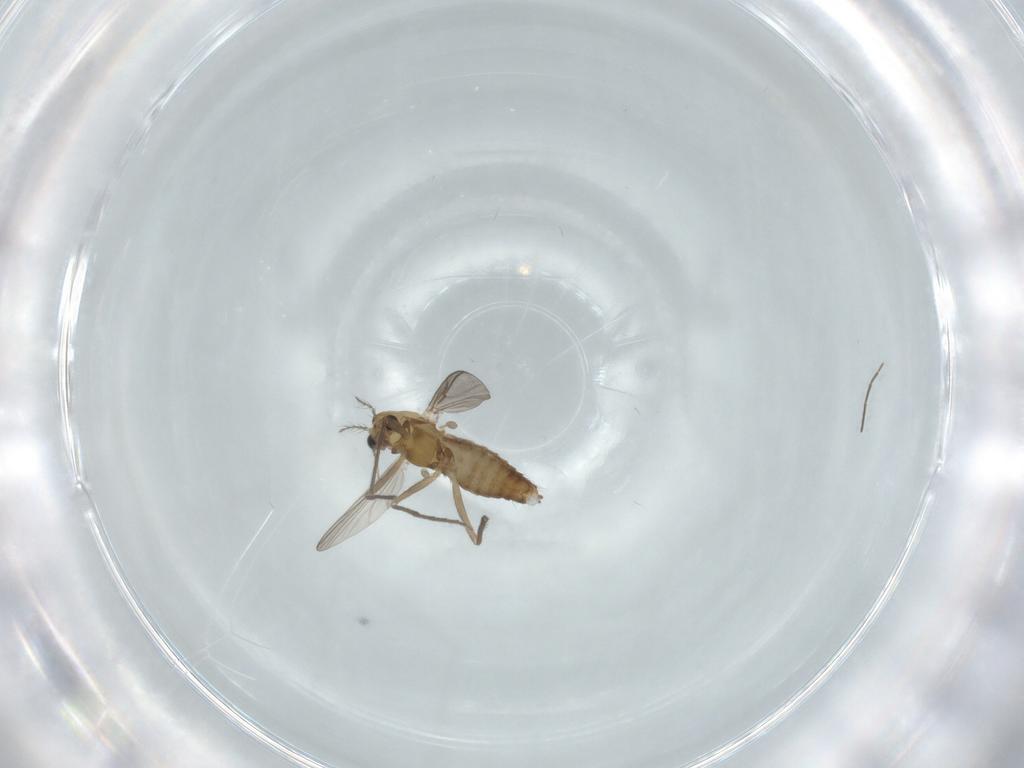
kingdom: Animalia
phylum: Arthropoda
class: Insecta
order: Diptera
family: Chironomidae
